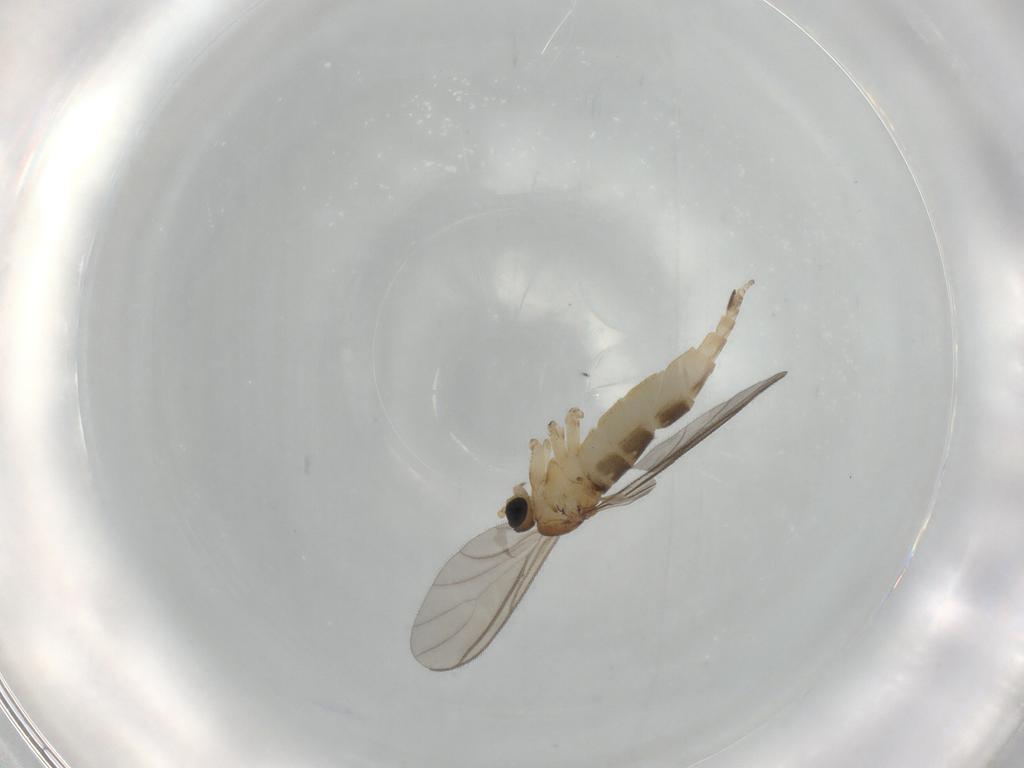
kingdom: Animalia
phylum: Arthropoda
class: Insecta
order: Diptera
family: Sciaridae
